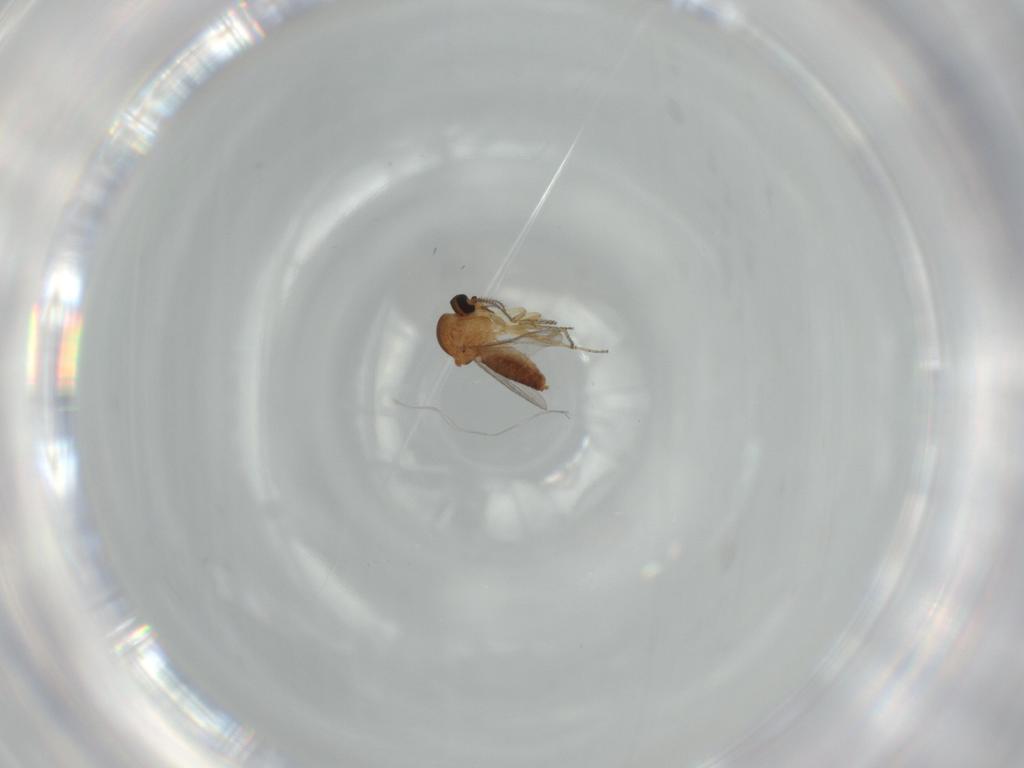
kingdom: Animalia
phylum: Arthropoda
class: Insecta
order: Diptera
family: Ceratopogonidae
